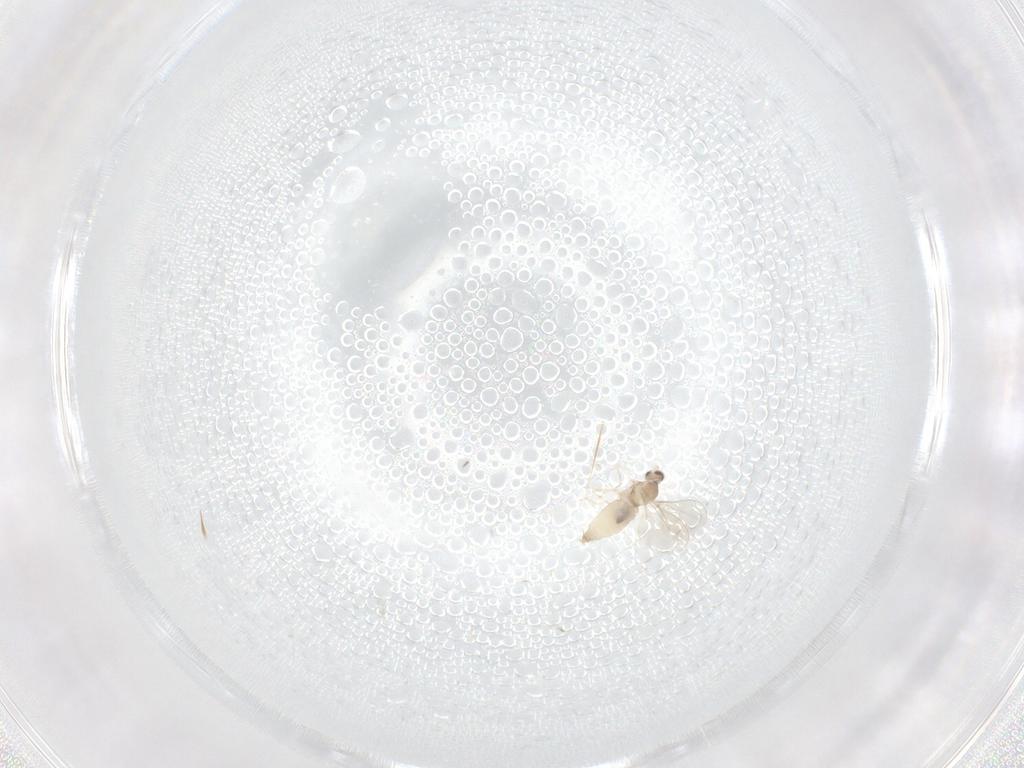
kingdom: Animalia
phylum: Arthropoda
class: Insecta
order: Diptera
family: Cecidomyiidae
